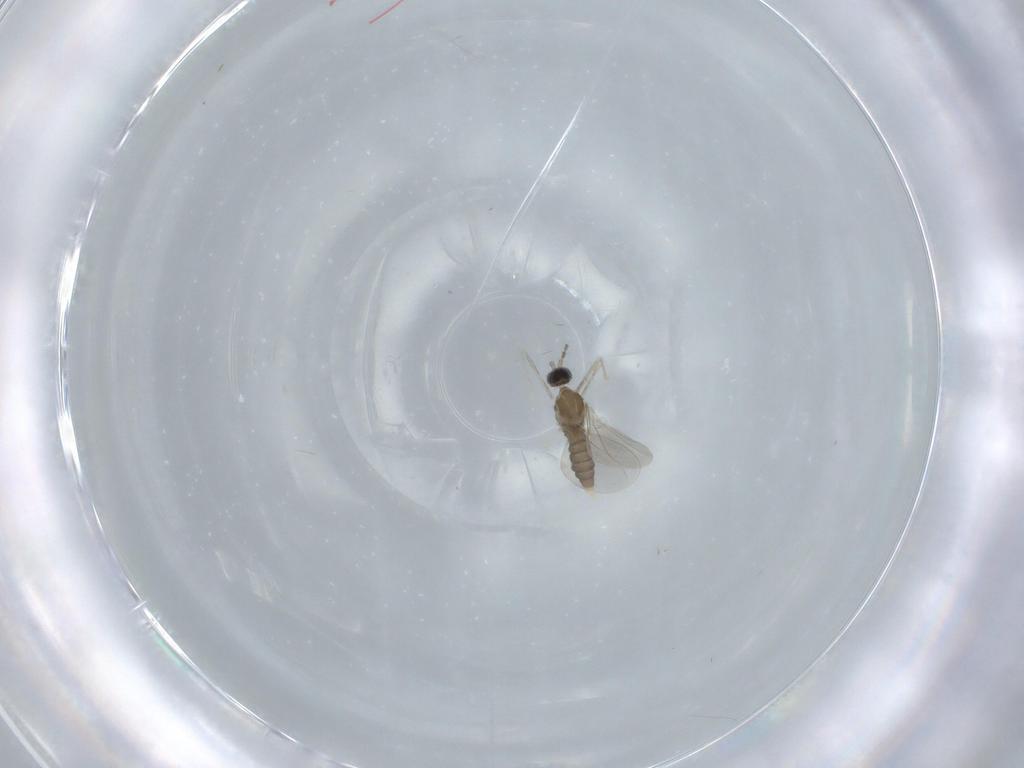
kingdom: Animalia
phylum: Arthropoda
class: Insecta
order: Diptera
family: Cecidomyiidae
